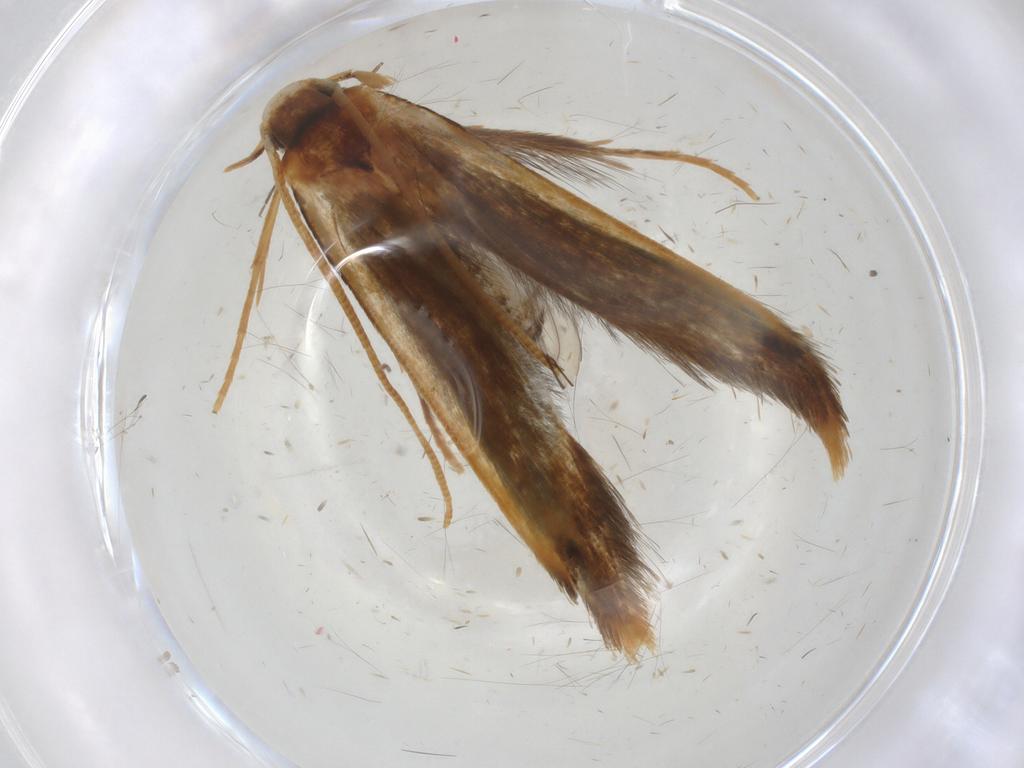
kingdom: Animalia
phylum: Arthropoda
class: Insecta
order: Lepidoptera
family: Tineidae
